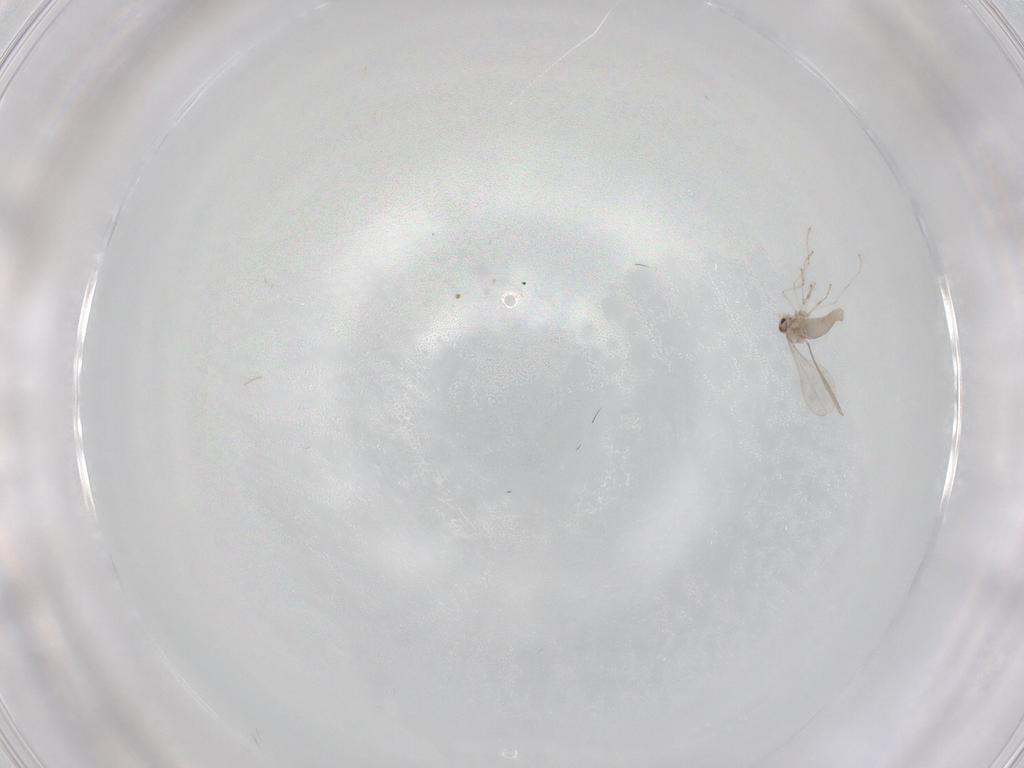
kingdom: Animalia
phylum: Arthropoda
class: Insecta
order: Diptera
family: Cecidomyiidae
